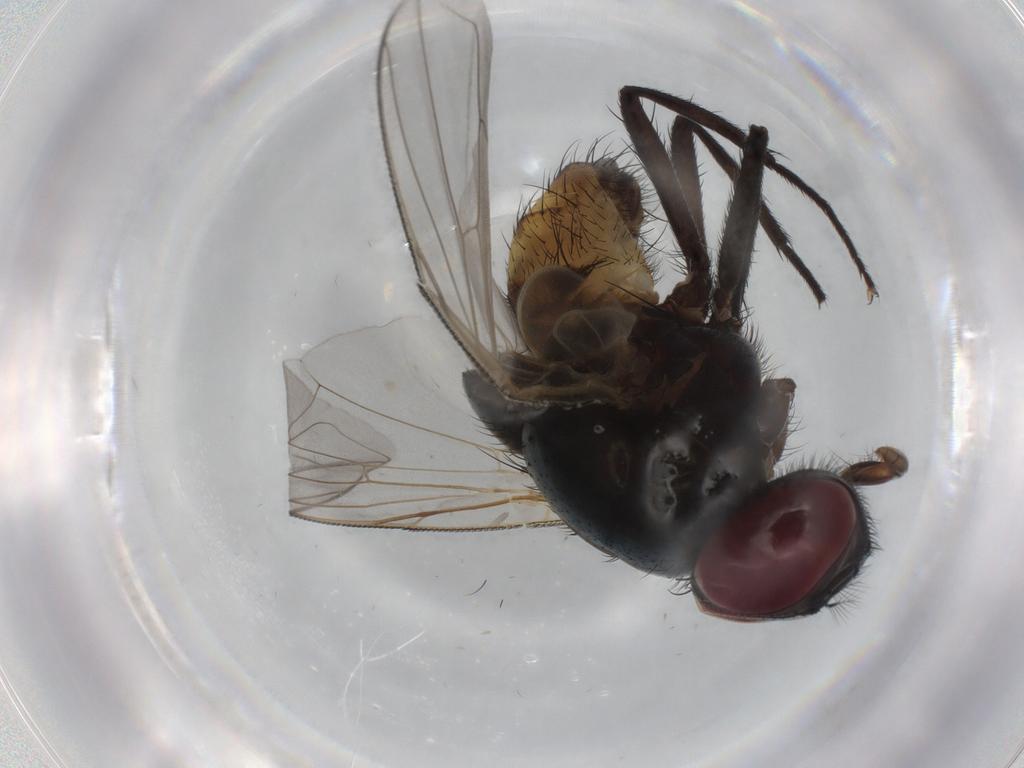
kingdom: Animalia
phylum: Arthropoda
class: Insecta
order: Diptera
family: Muscidae
